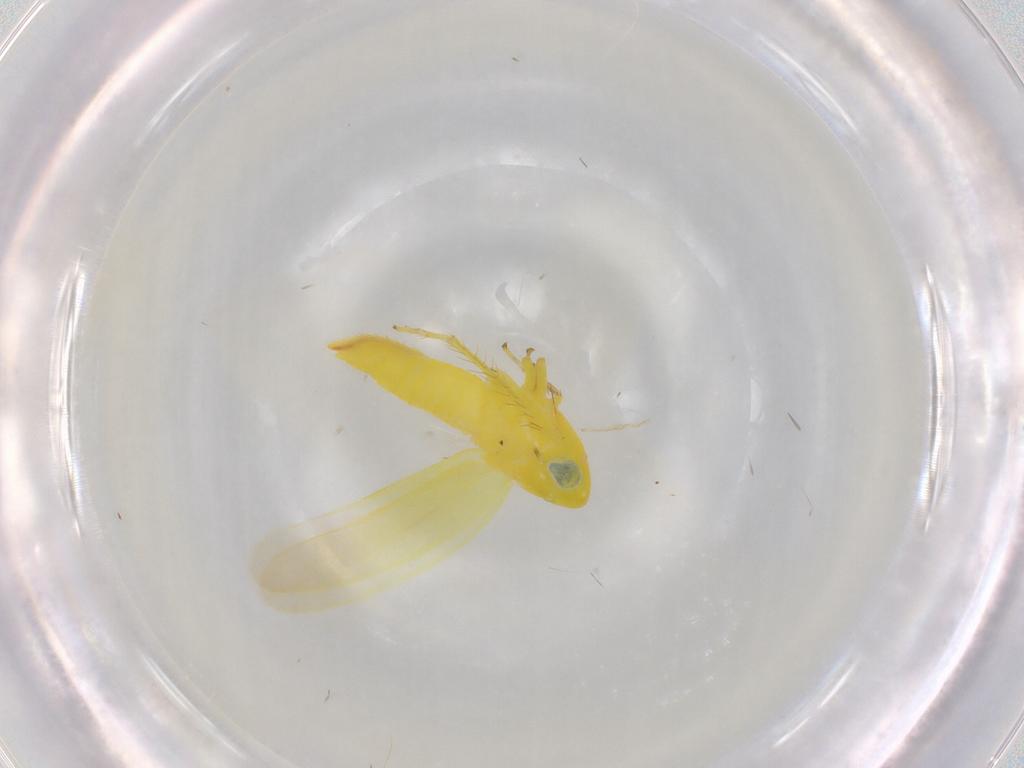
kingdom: Animalia
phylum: Arthropoda
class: Insecta
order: Hemiptera
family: Cicadellidae
